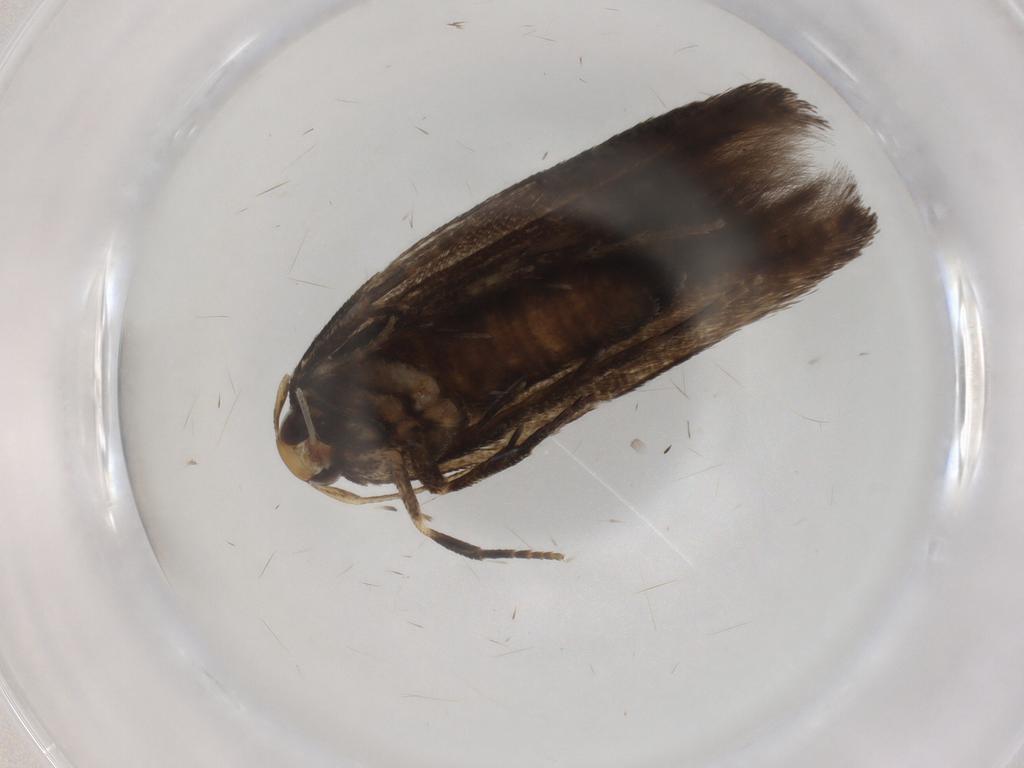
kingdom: Animalia
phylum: Arthropoda
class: Insecta
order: Lepidoptera
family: Cosmopterigidae
